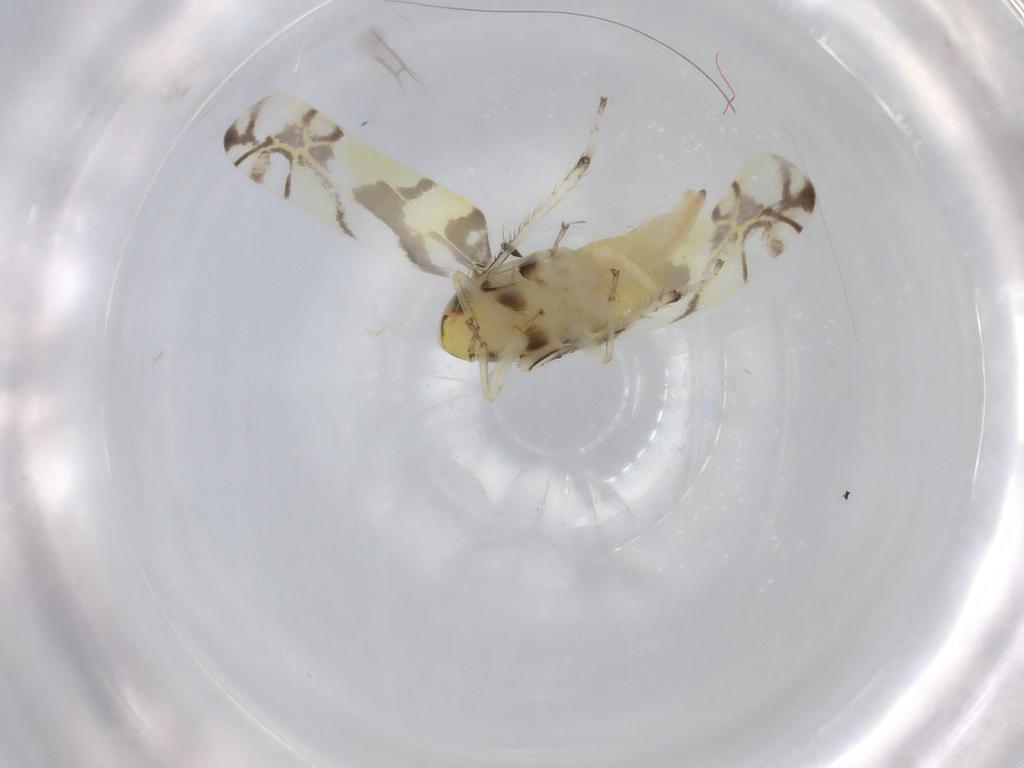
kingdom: Animalia
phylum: Arthropoda
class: Insecta
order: Hemiptera
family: Cicadellidae
